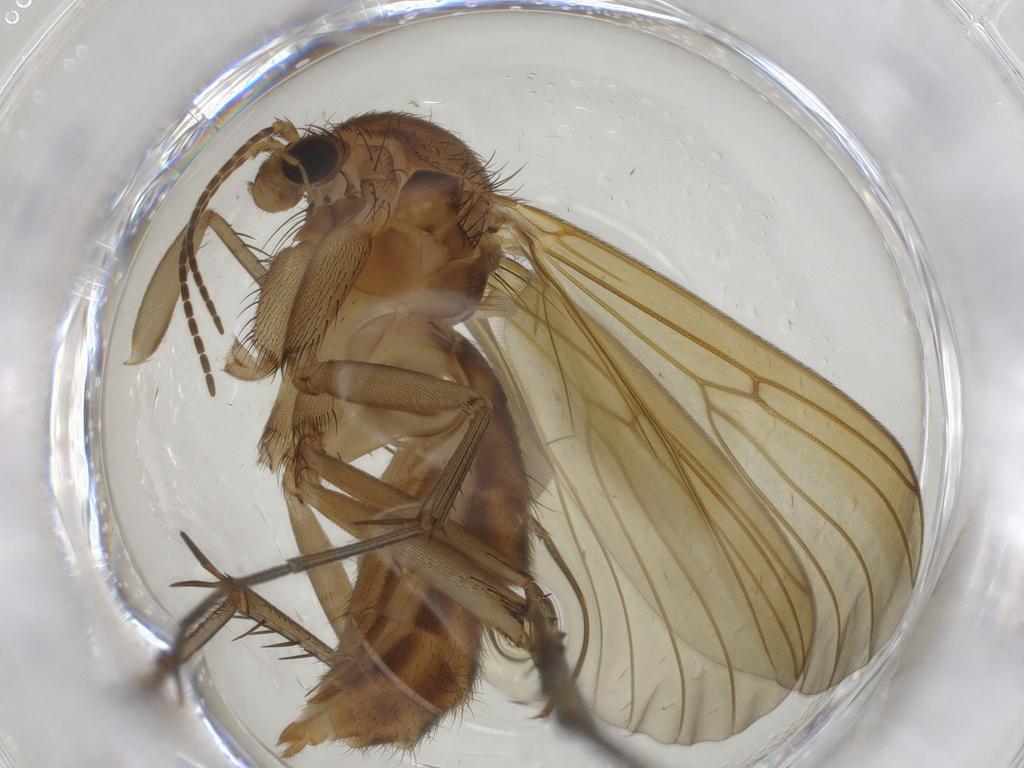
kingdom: Animalia
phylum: Arthropoda
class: Insecta
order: Diptera
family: Mycetophilidae
